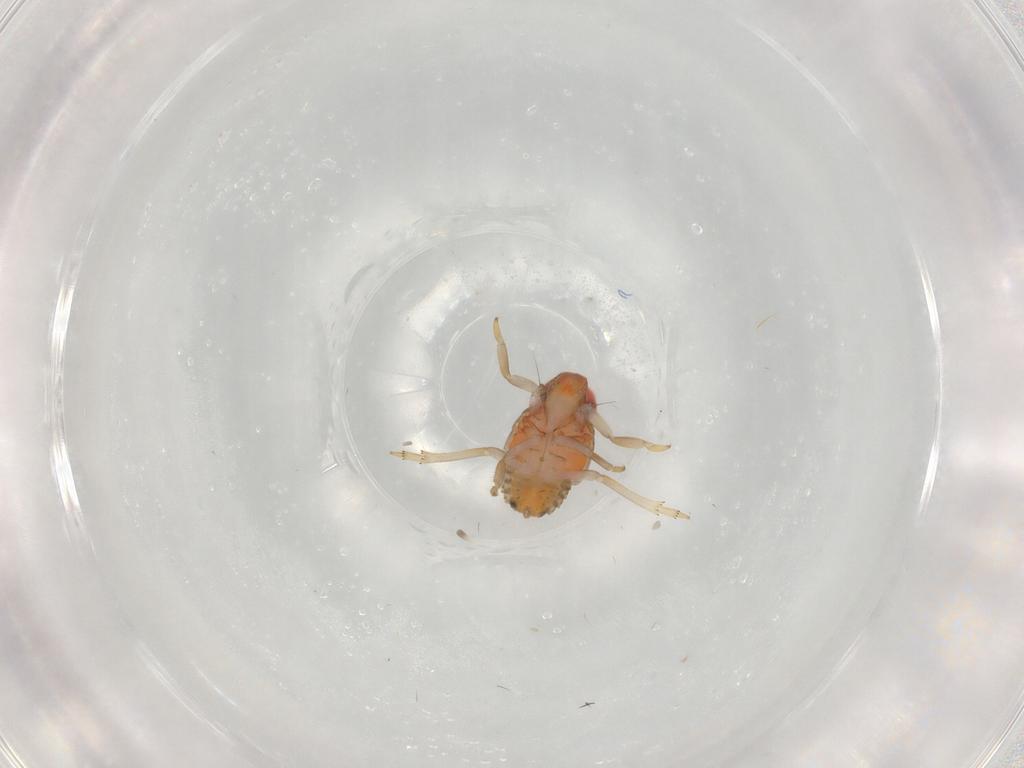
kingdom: Animalia
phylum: Arthropoda
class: Insecta
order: Hemiptera
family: Issidae
